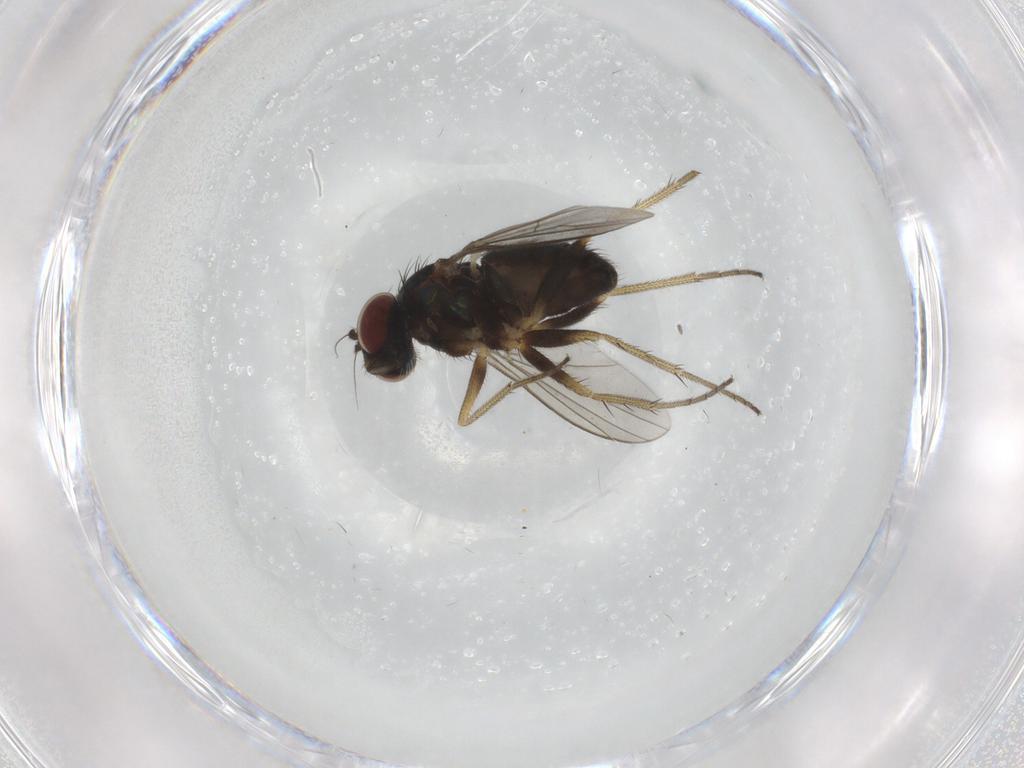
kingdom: Animalia
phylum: Arthropoda
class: Insecta
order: Diptera
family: Dolichopodidae
